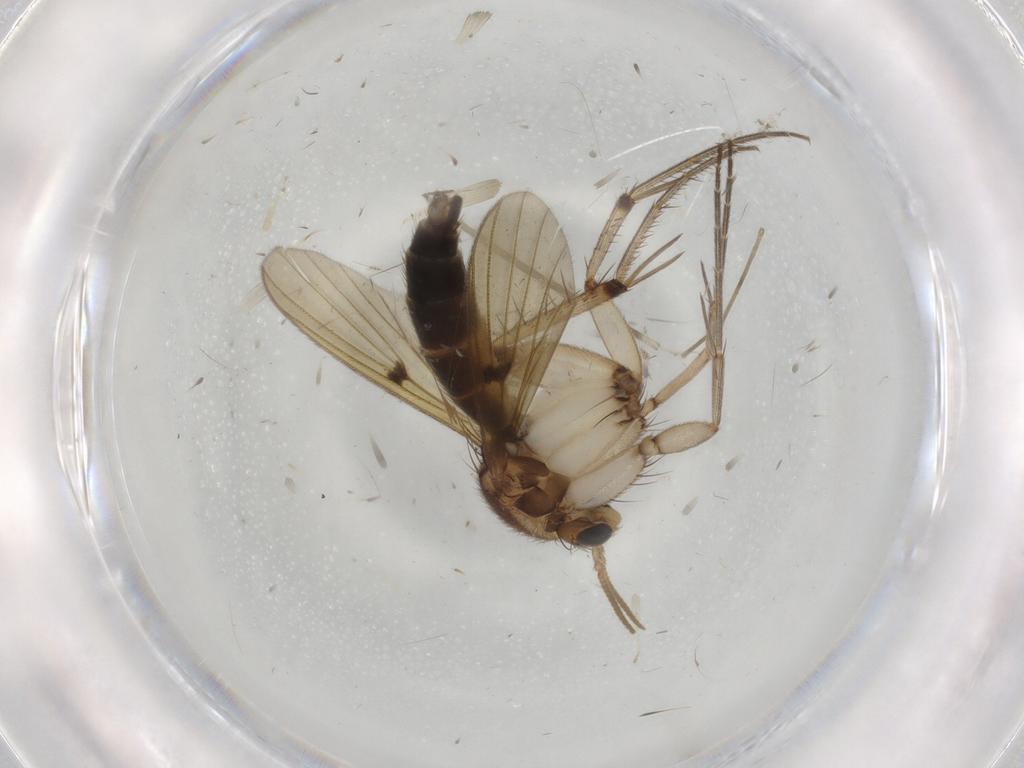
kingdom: Animalia
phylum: Arthropoda
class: Insecta
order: Diptera
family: Mycetophilidae
